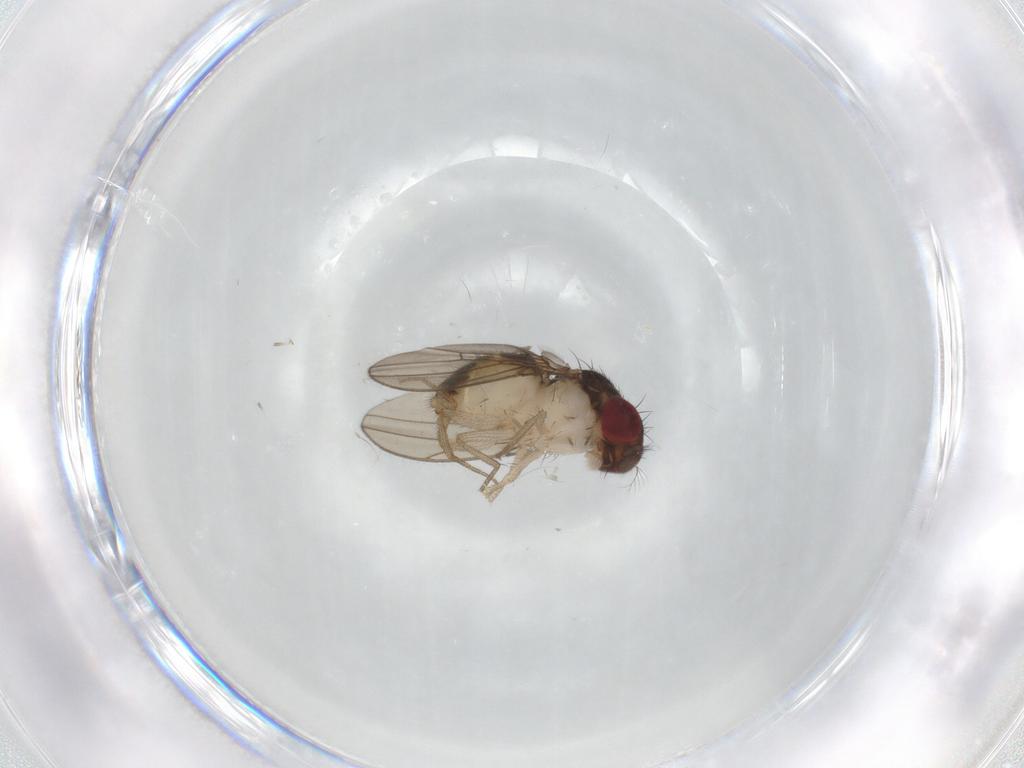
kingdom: Animalia
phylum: Arthropoda
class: Insecta
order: Diptera
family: Drosophilidae
